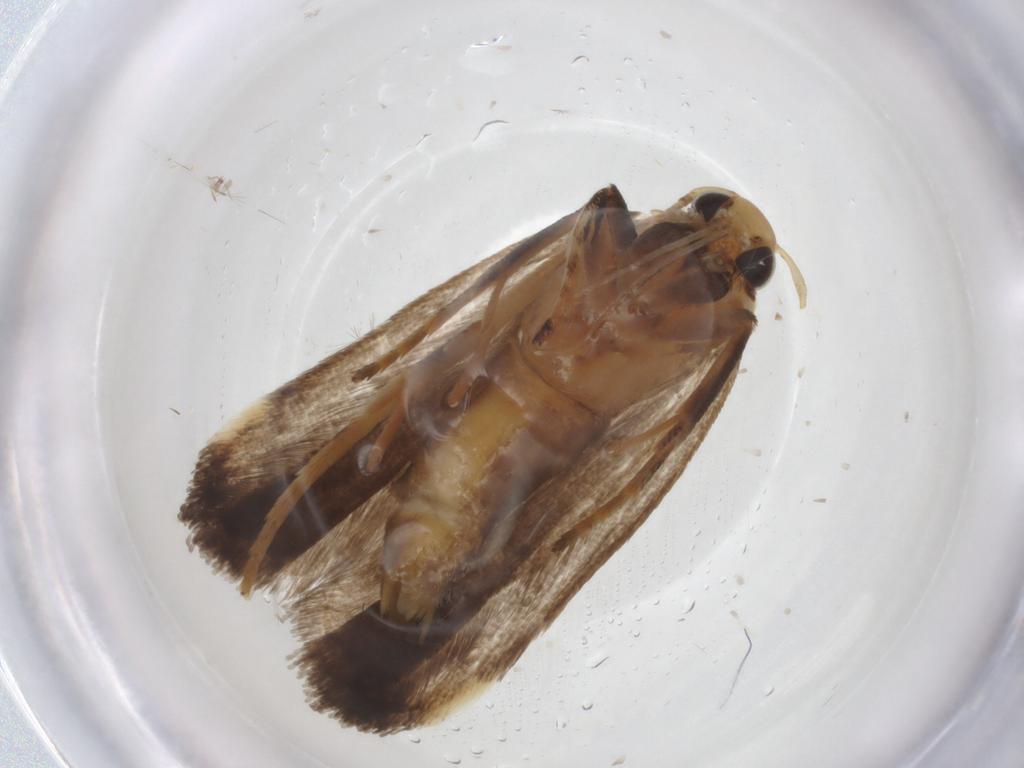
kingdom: Animalia
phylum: Arthropoda
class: Insecta
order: Lepidoptera
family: Gelechiidae
